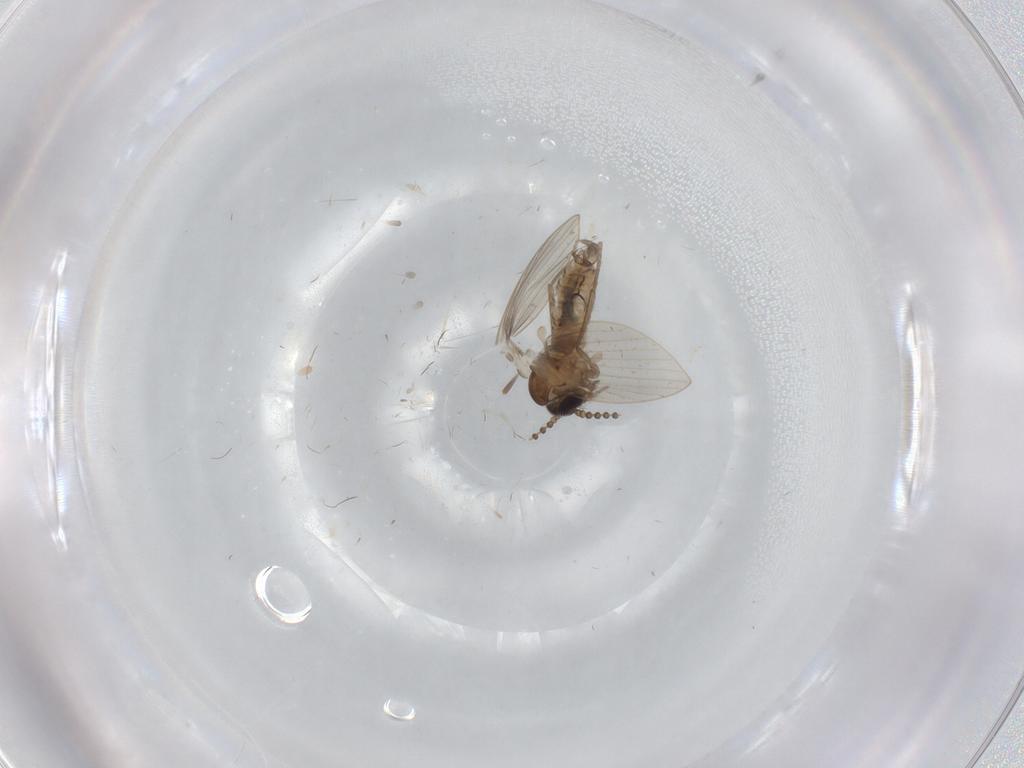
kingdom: Animalia
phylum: Arthropoda
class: Insecta
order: Diptera
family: Psychodidae
